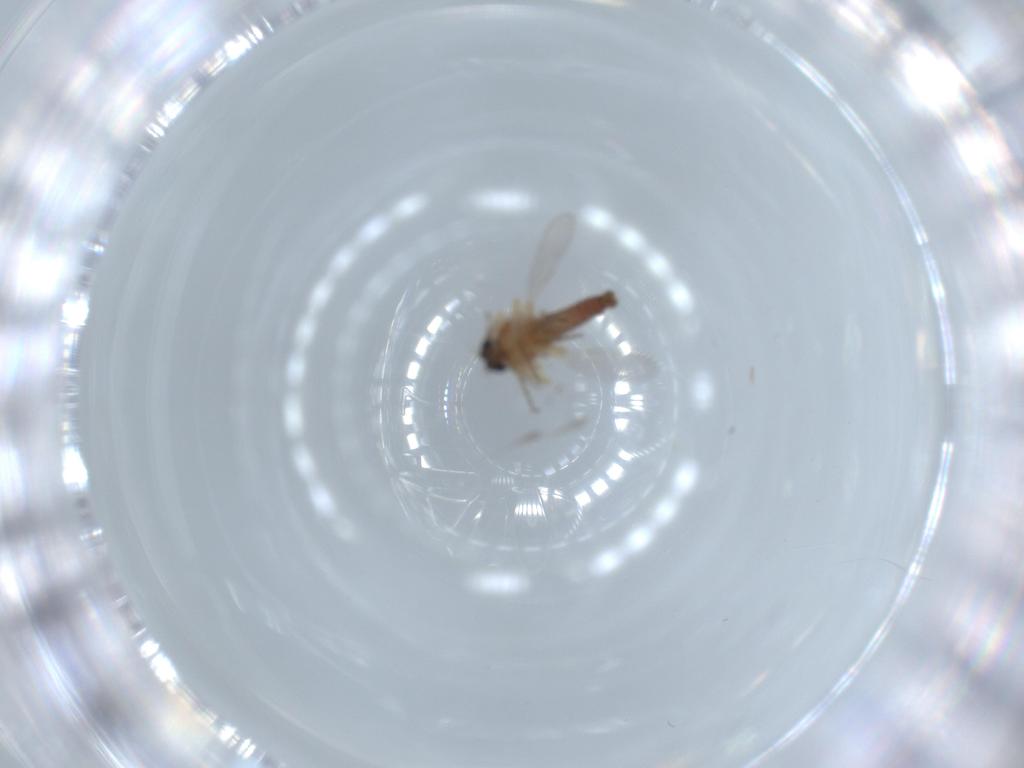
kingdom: Animalia
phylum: Arthropoda
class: Insecta
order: Diptera
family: Ceratopogonidae
